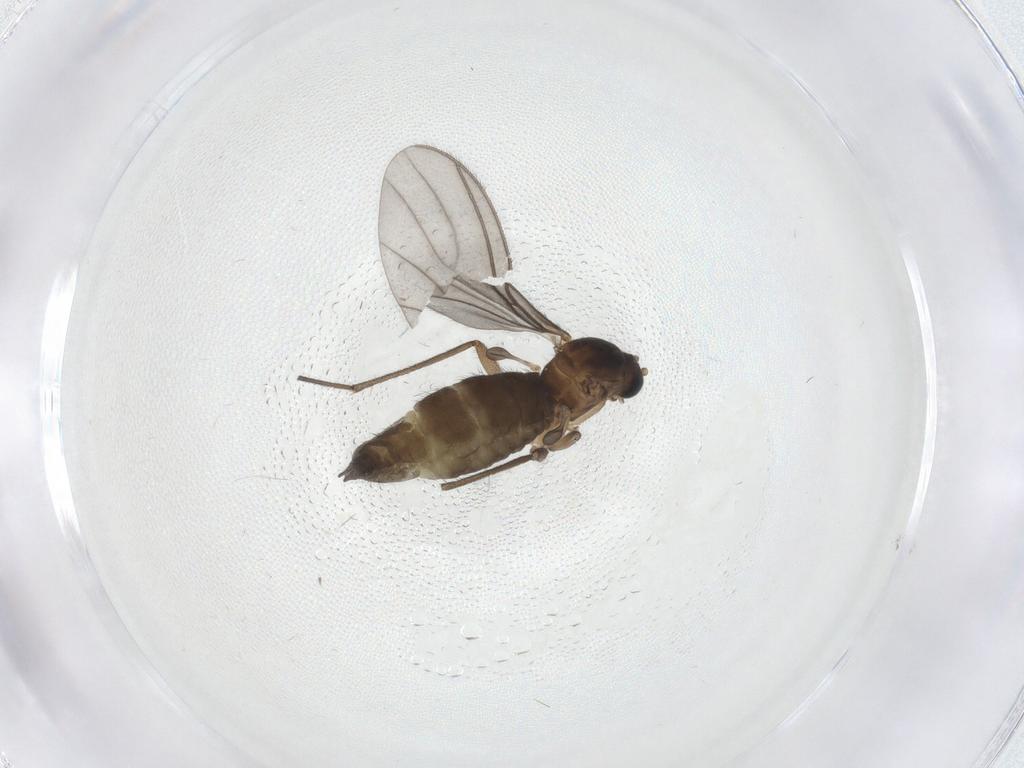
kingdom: Animalia
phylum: Arthropoda
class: Insecta
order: Diptera
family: Sciaridae
